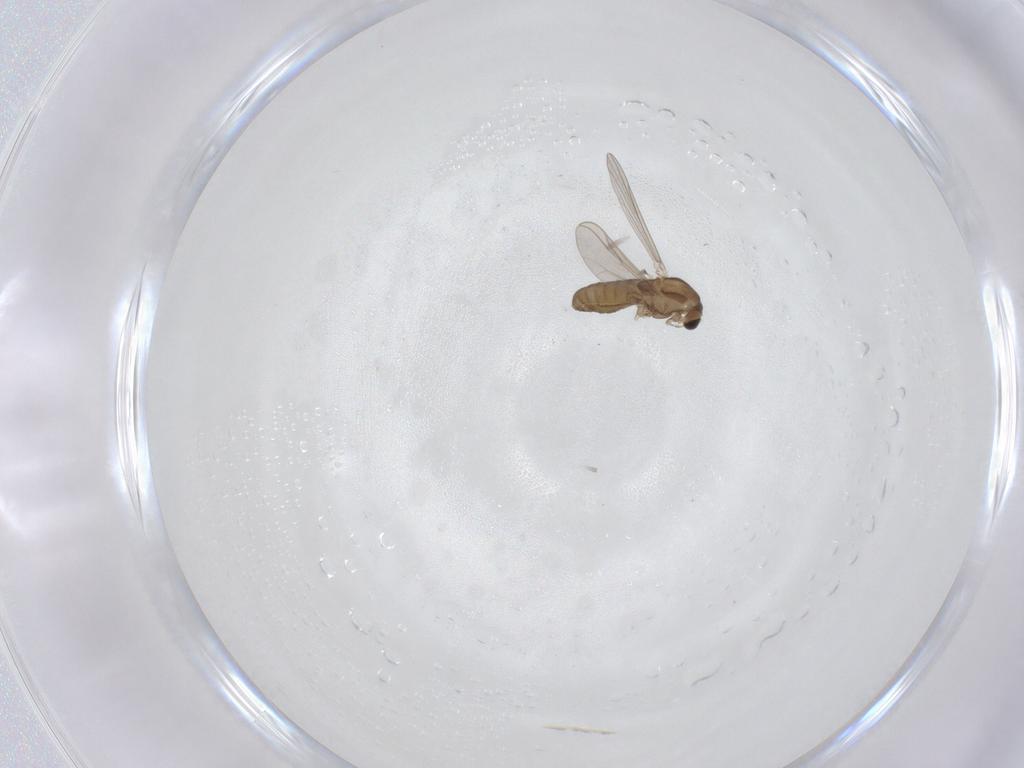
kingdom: Animalia
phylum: Arthropoda
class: Insecta
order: Diptera
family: Chironomidae
